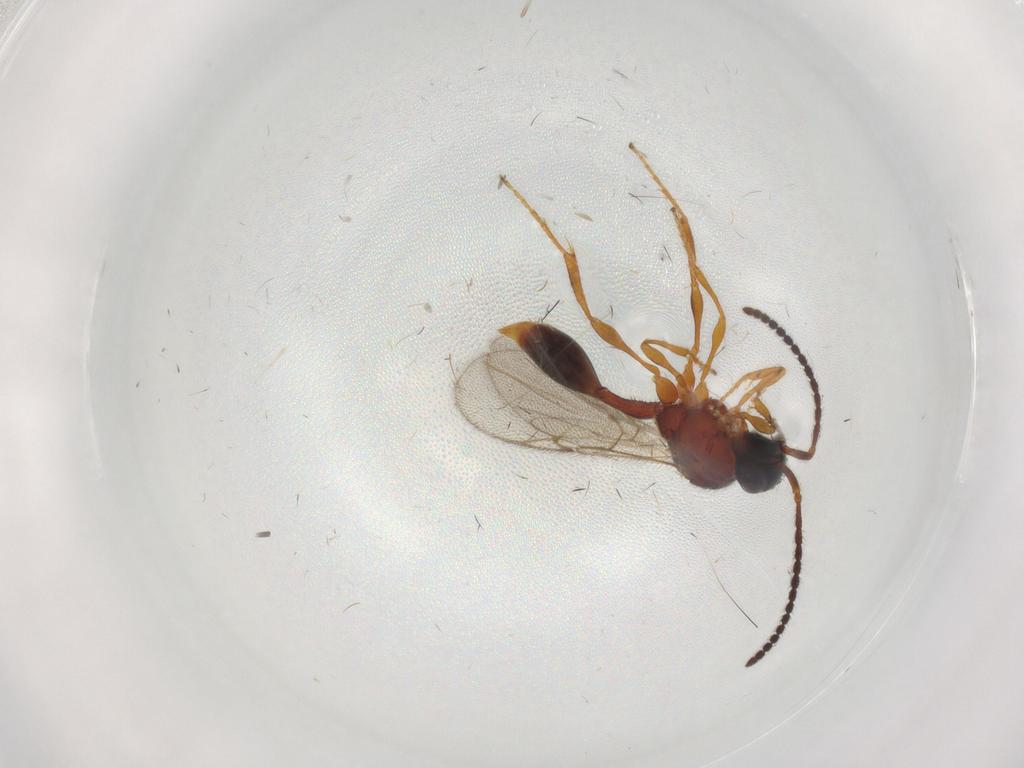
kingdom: Animalia
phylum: Arthropoda
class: Insecta
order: Hymenoptera
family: Diapriidae
